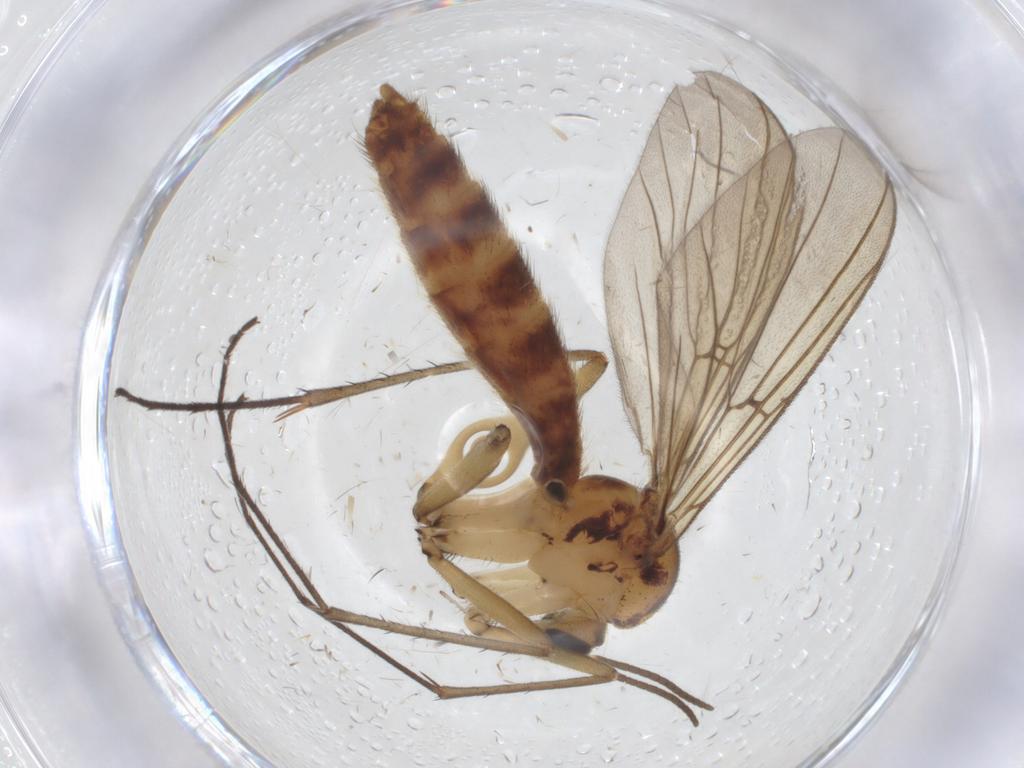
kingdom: Animalia
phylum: Arthropoda
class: Insecta
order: Diptera
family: Mycetophilidae
